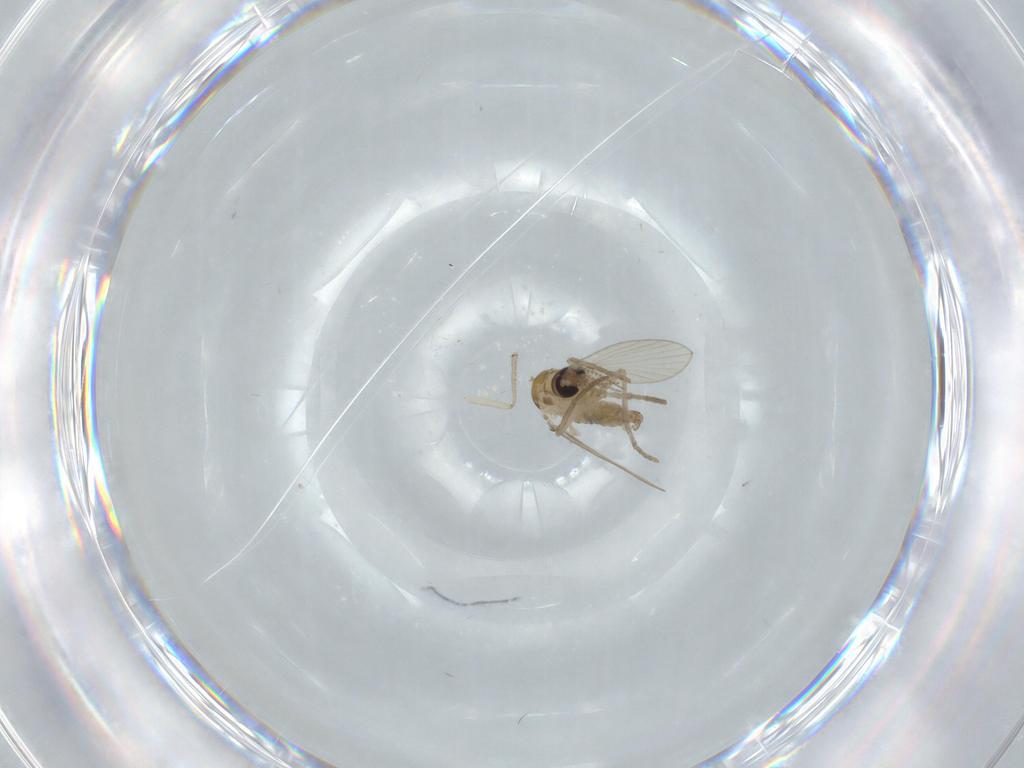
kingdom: Animalia
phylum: Arthropoda
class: Insecta
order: Diptera
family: Psychodidae
